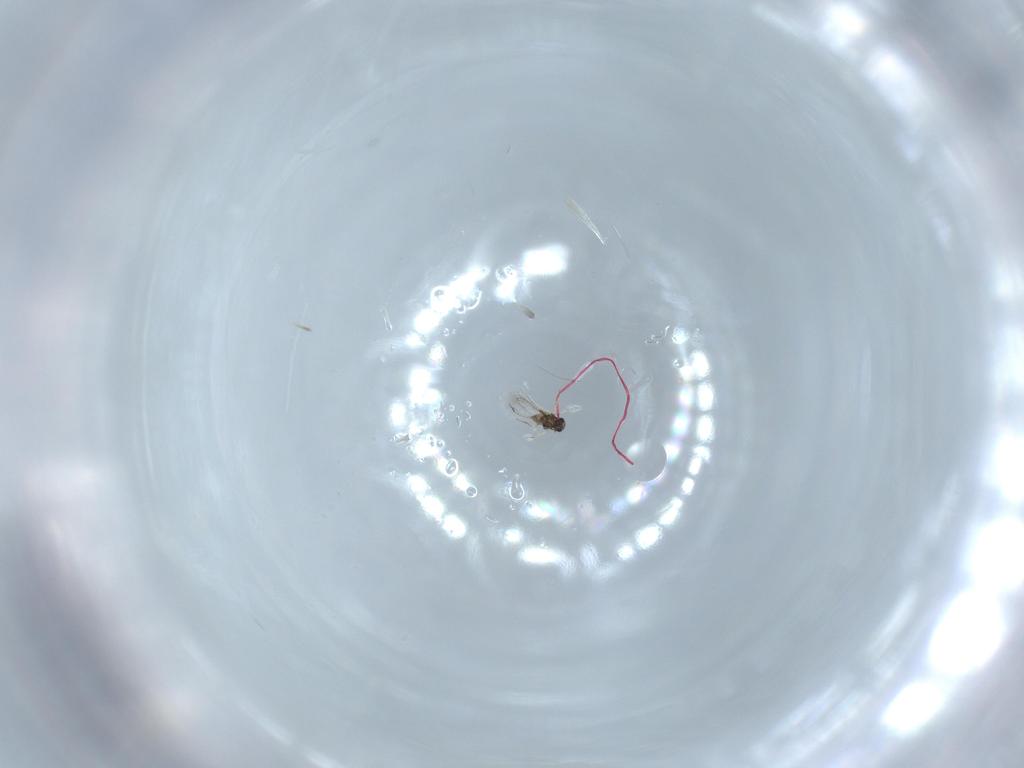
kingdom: Animalia
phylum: Arthropoda
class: Insecta
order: Hymenoptera
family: Formicidae
